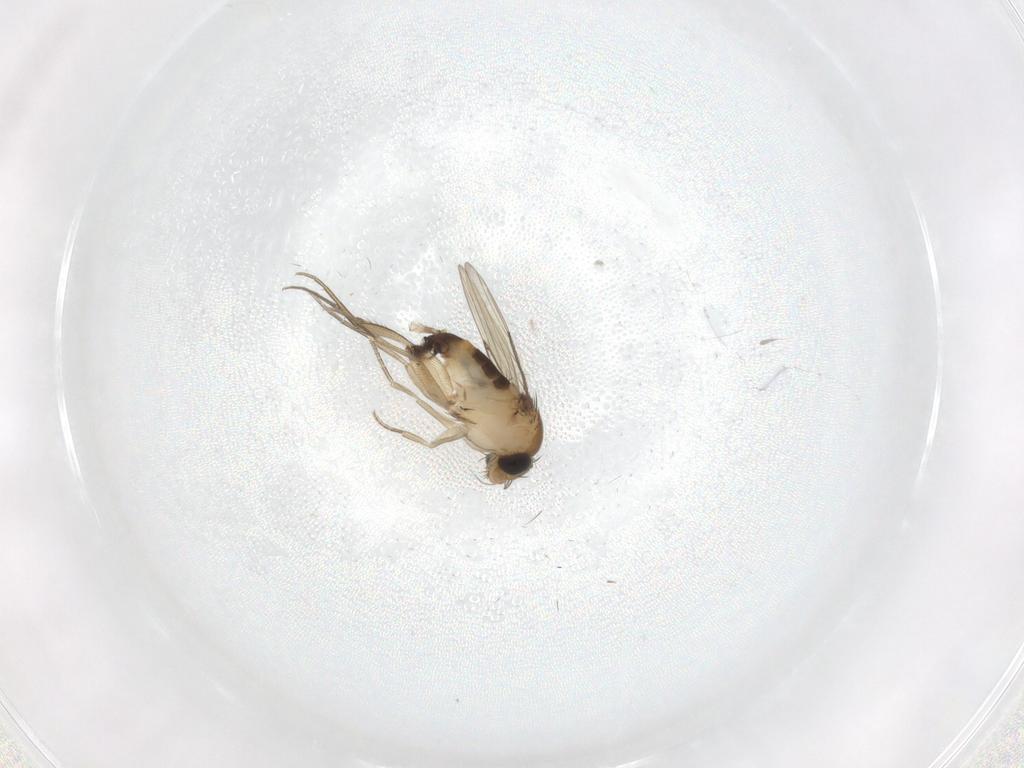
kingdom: Animalia
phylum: Arthropoda
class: Insecta
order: Diptera
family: Phoridae
